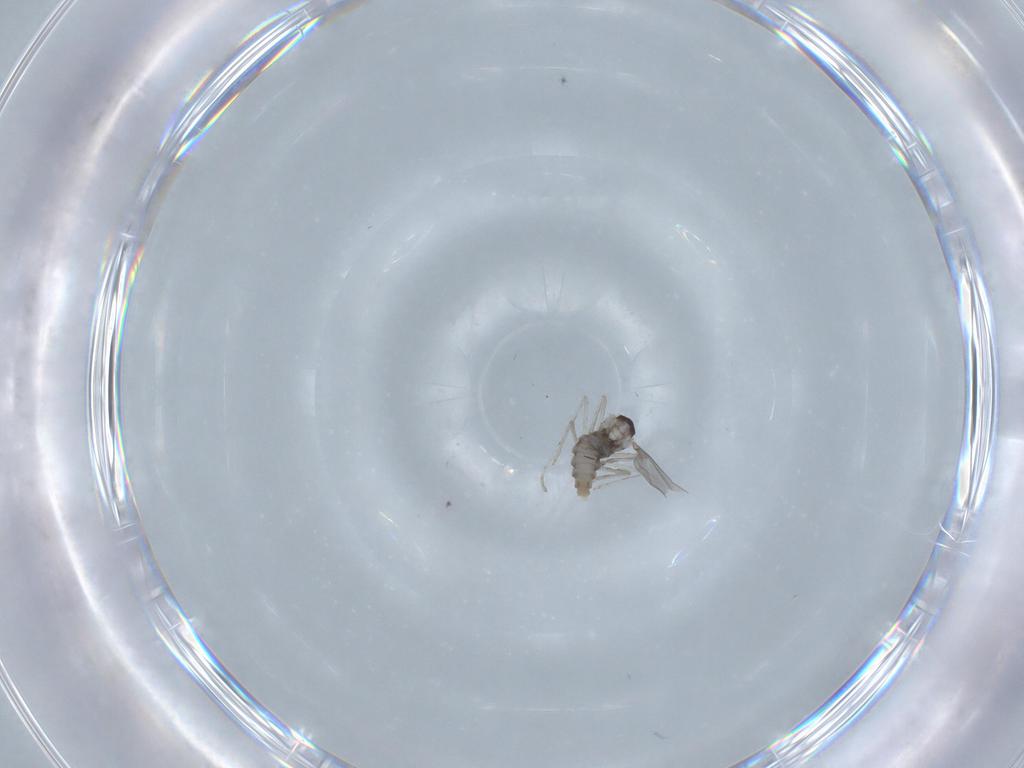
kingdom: Animalia
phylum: Arthropoda
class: Insecta
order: Diptera
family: Cecidomyiidae
